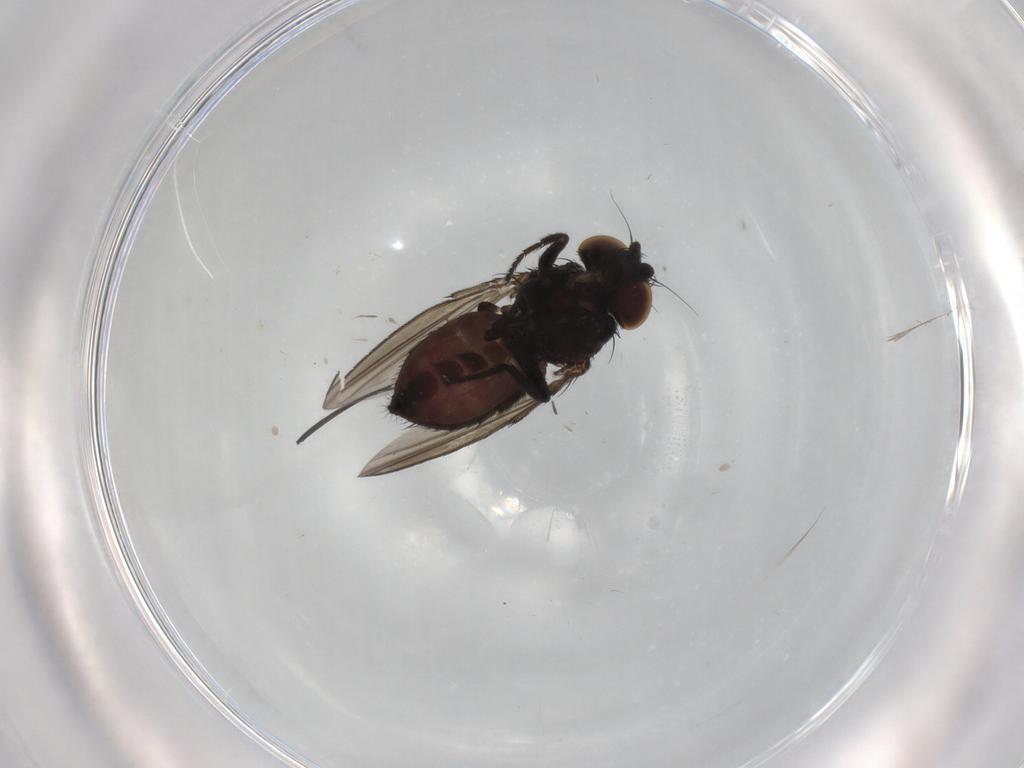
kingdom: Animalia
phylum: Arthropoda
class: Insecta
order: Diptera
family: Milichiidae
